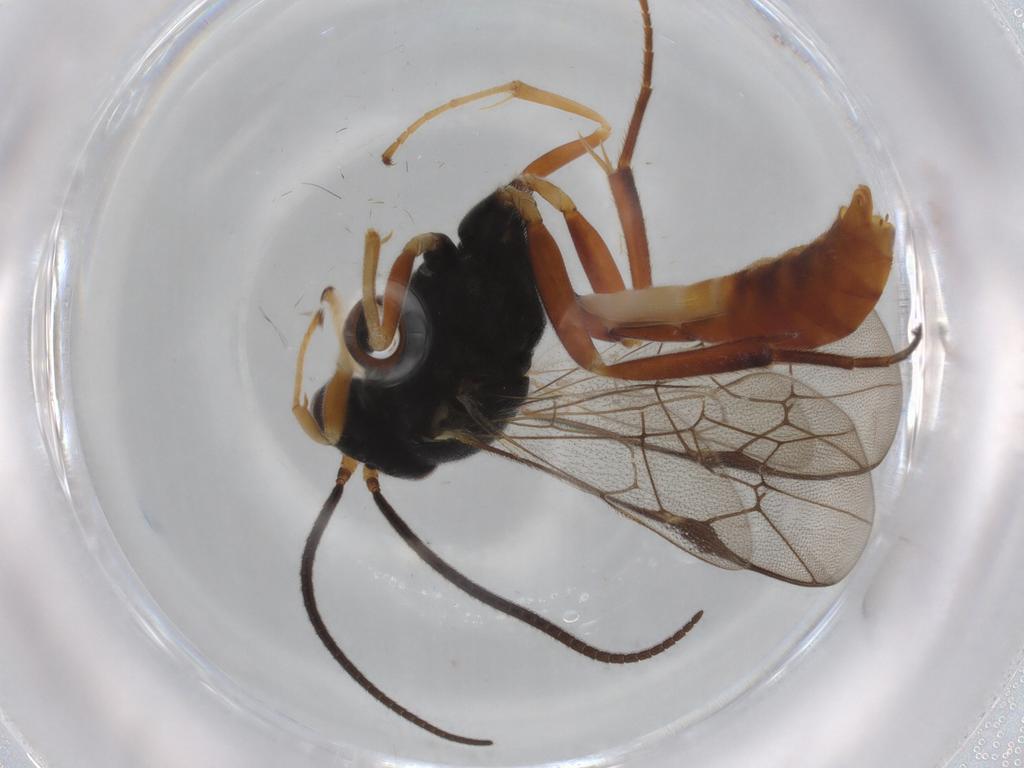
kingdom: Animalia
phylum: Arthropoda
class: Insecta
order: Hymenoptera
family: Ichneumonidae
